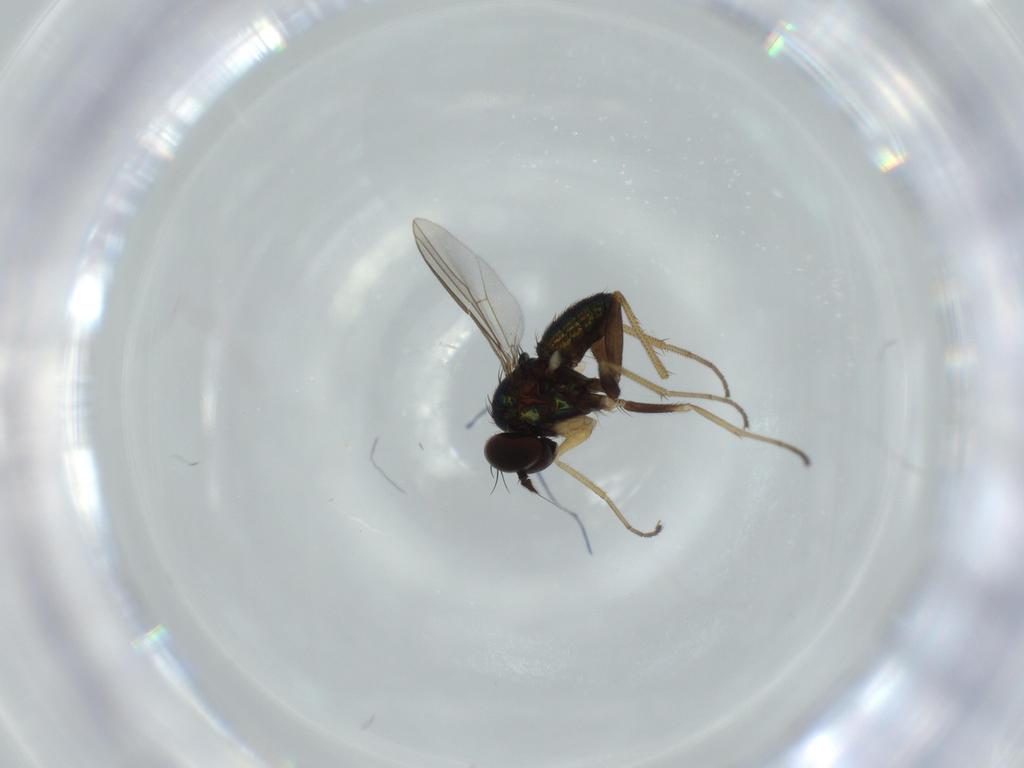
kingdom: Animalia
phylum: Arthropoda
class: Insecta
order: Diptera
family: Dolichopodidae
